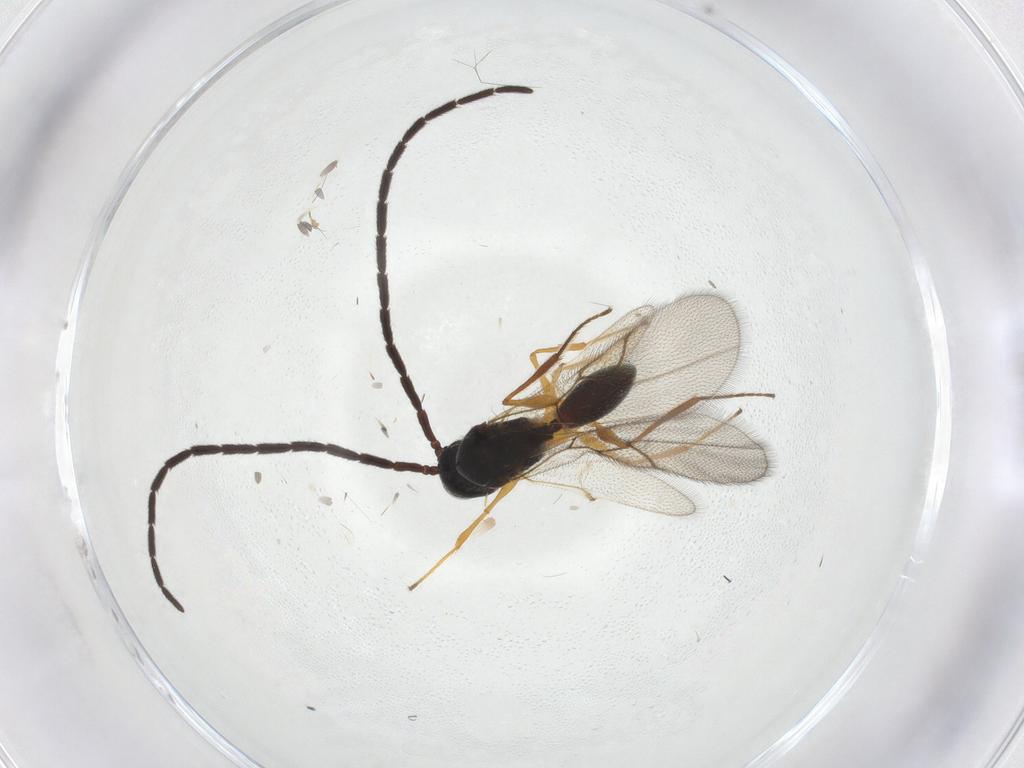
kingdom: Animalia
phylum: Arthropoda
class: Insecta
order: Hymenoptera
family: Figitidae
